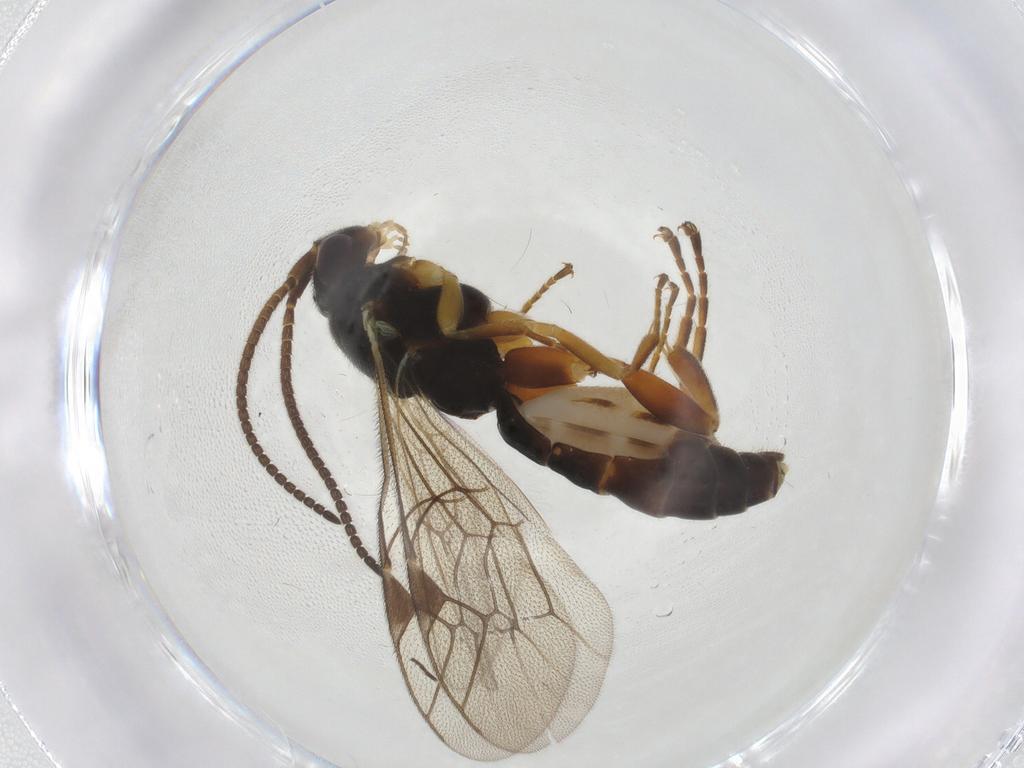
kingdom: Animalia
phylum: Arthropoda
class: Insecta
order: Hymenoptera
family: Ichneumonidae
